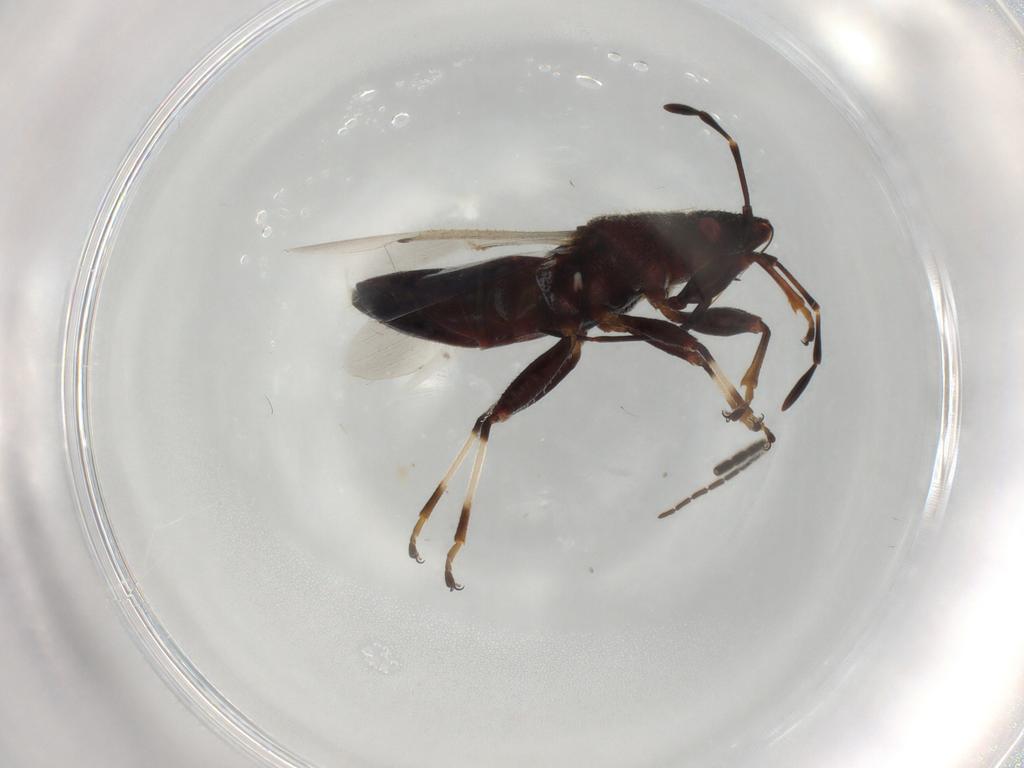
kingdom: Animalia
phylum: Arthropoda
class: Insecta
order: Hemiptera
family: Oxycarenidae
